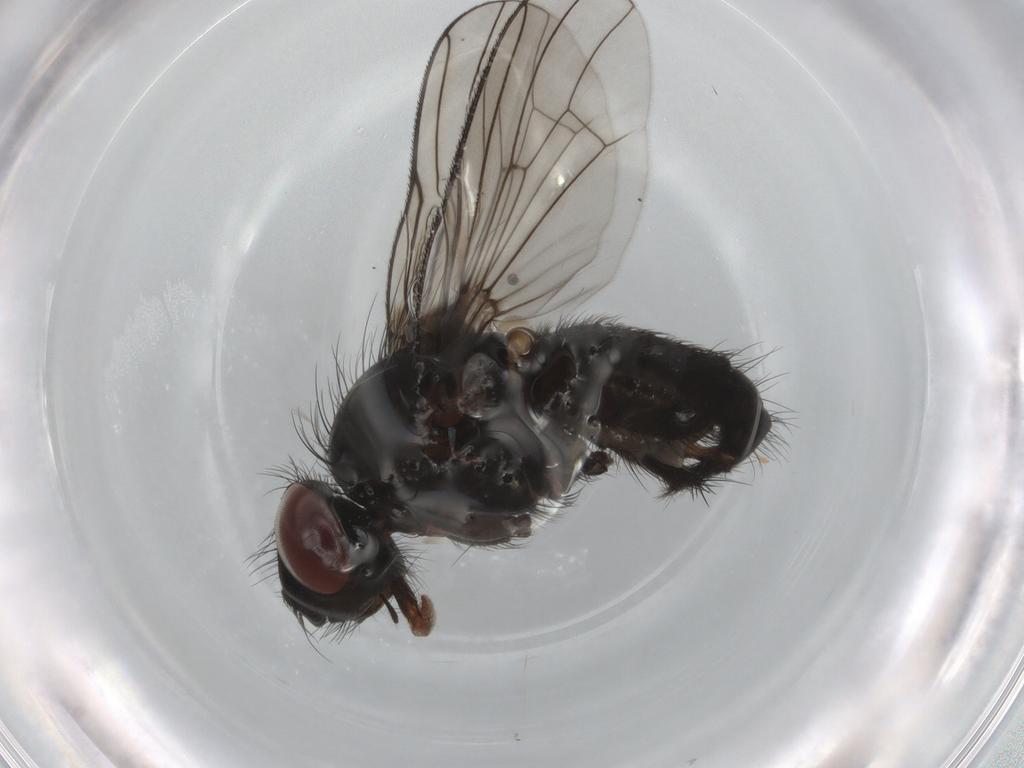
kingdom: Animalia
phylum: Arthropoda
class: Insecta
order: Diptera
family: Anthomyiidae
